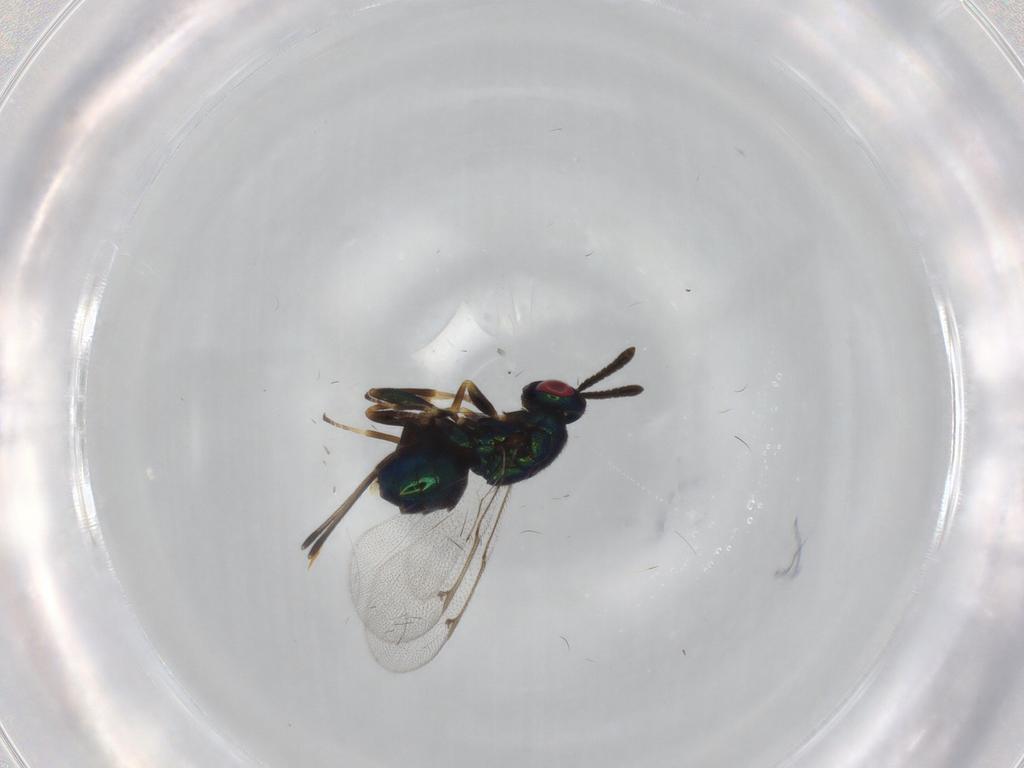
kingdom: Animalia
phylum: Arthropoda
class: Insecta
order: Hymenoptera
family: Torymidae
